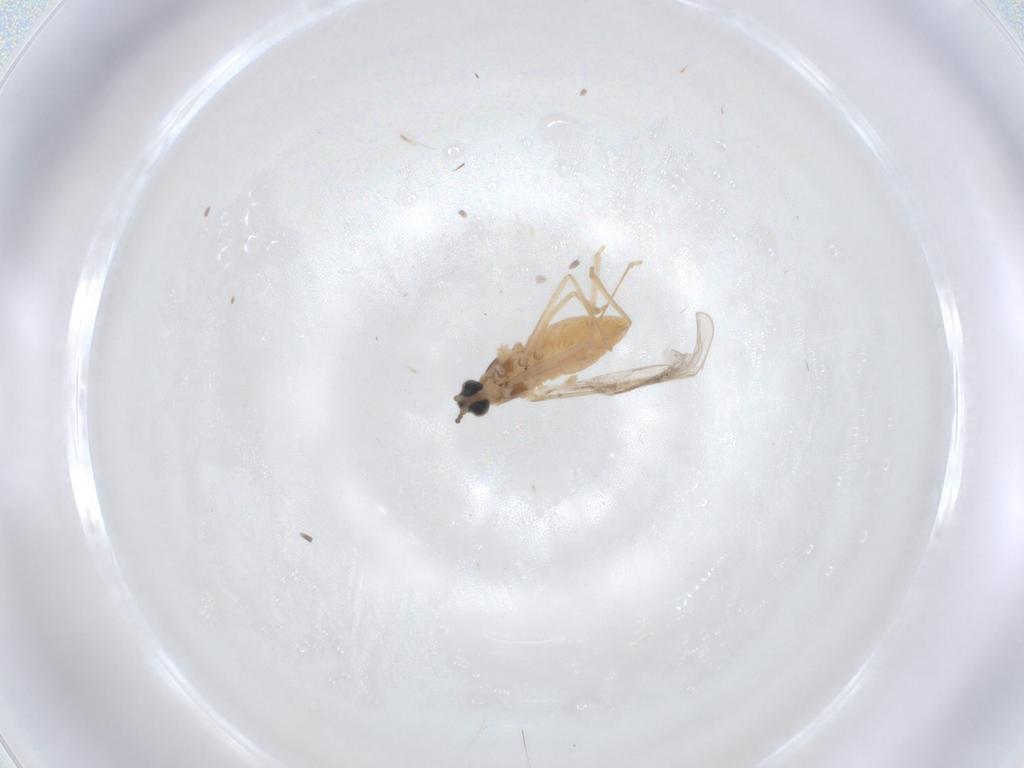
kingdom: Animalia
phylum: Arthropoda
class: Insecta
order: Diptera
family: Cecidomyiidae
